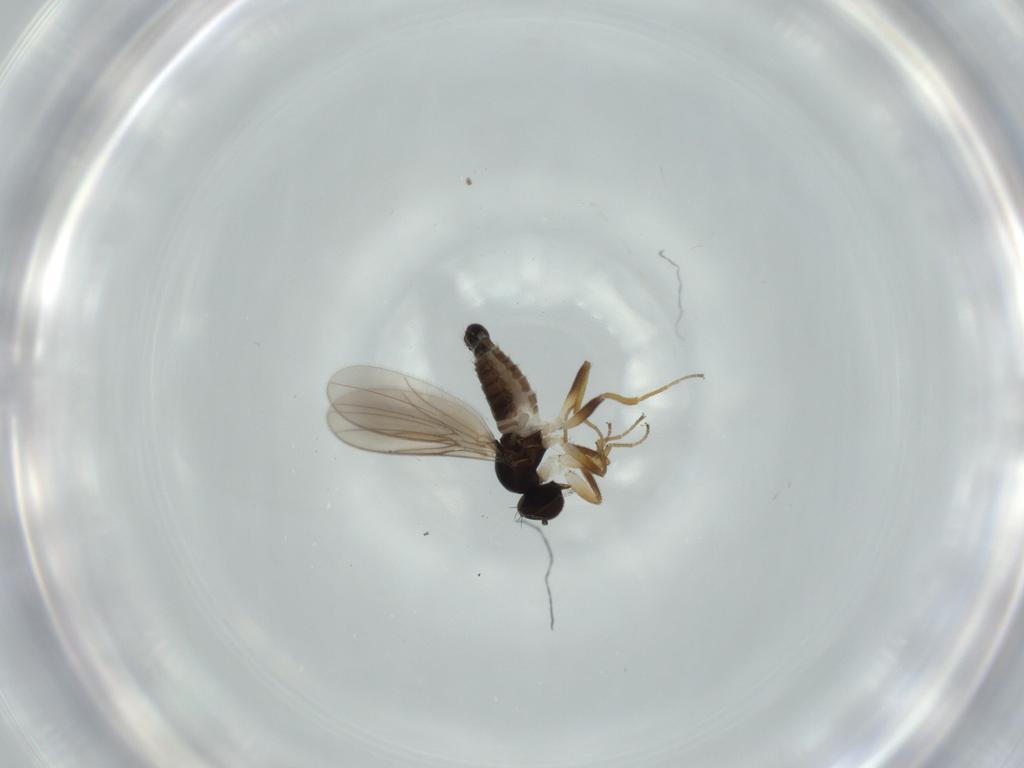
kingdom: Animalia
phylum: Arthropoda
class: Insecta
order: Diptera
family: Hybotidae
